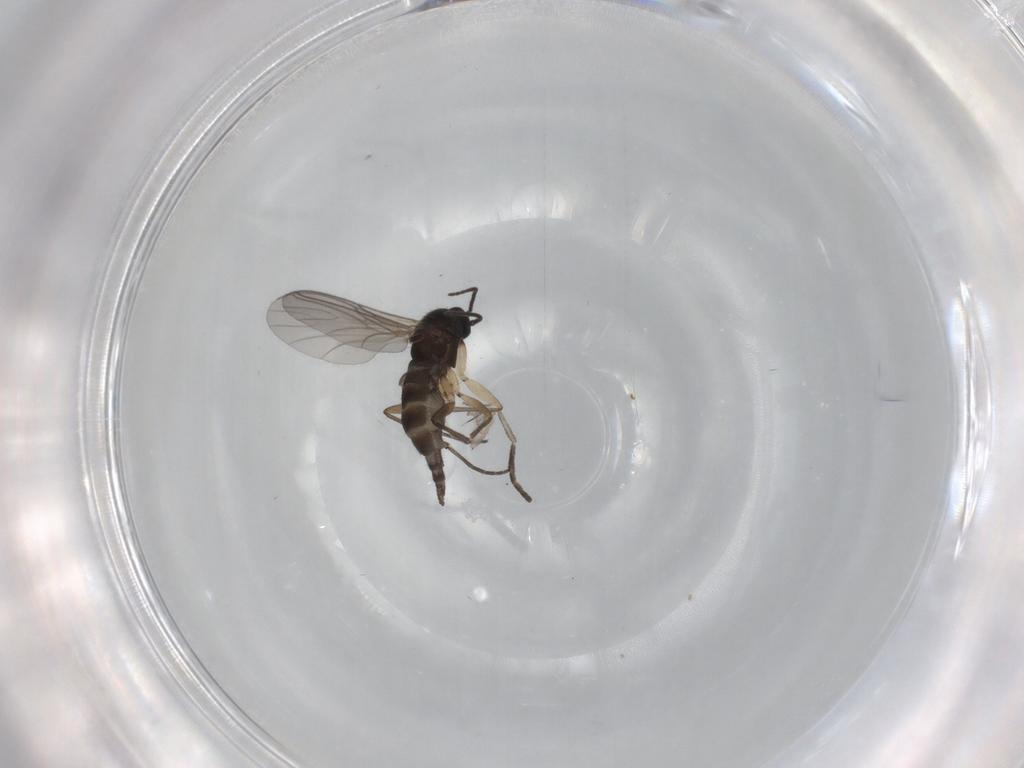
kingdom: Animalia
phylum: Arthropoda
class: Insecta
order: Diptera
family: Sciaridae
